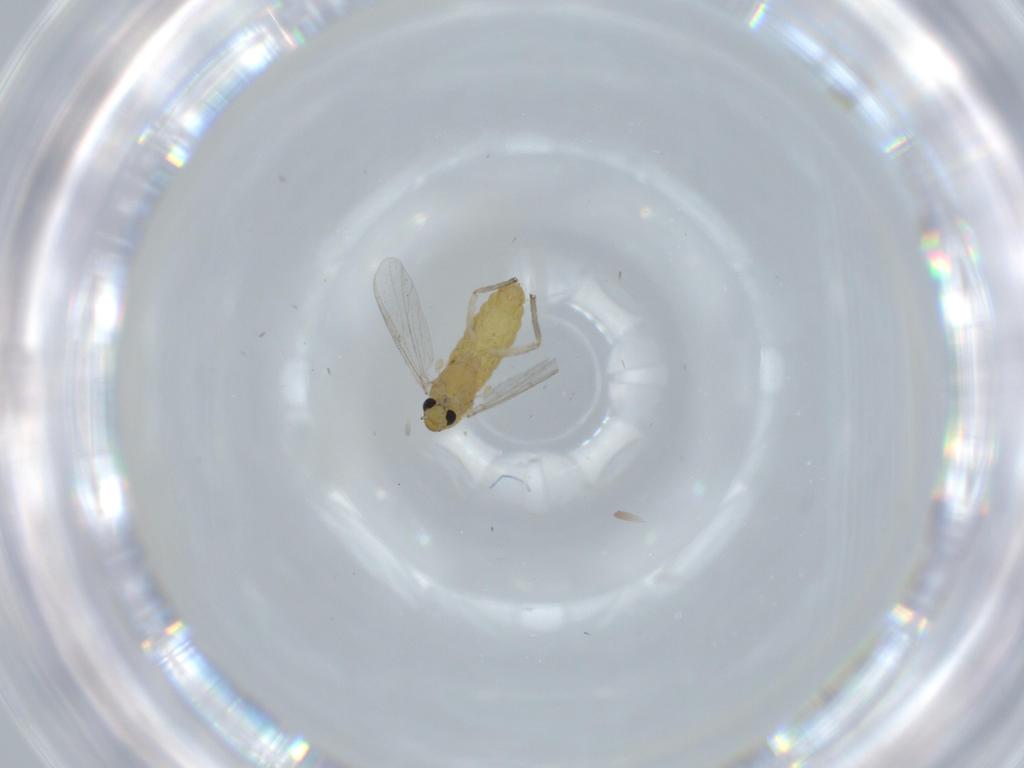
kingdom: Animalia
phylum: Arthropoda
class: Insecta
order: Diptera
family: Chironomidae
